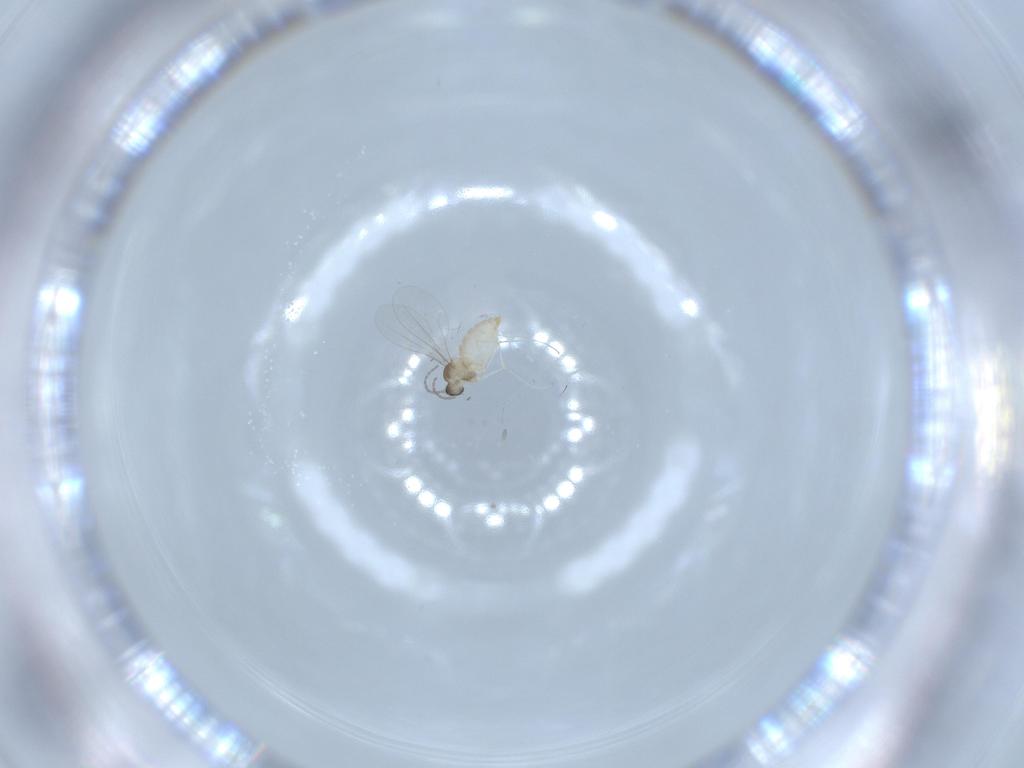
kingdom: Animalia
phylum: Arthropoda
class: Insecta
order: Diptera
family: Cecidomyiidae
